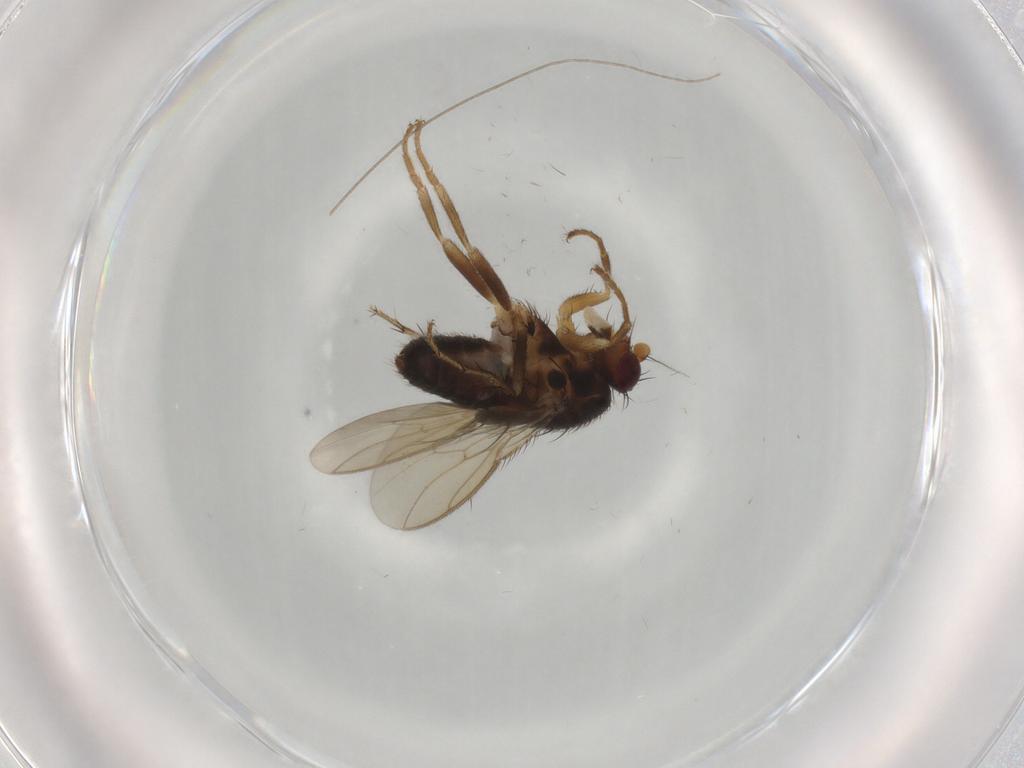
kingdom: Animalia
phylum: Arthropoda
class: Insecta
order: Diptera
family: Sphaeroceridae
